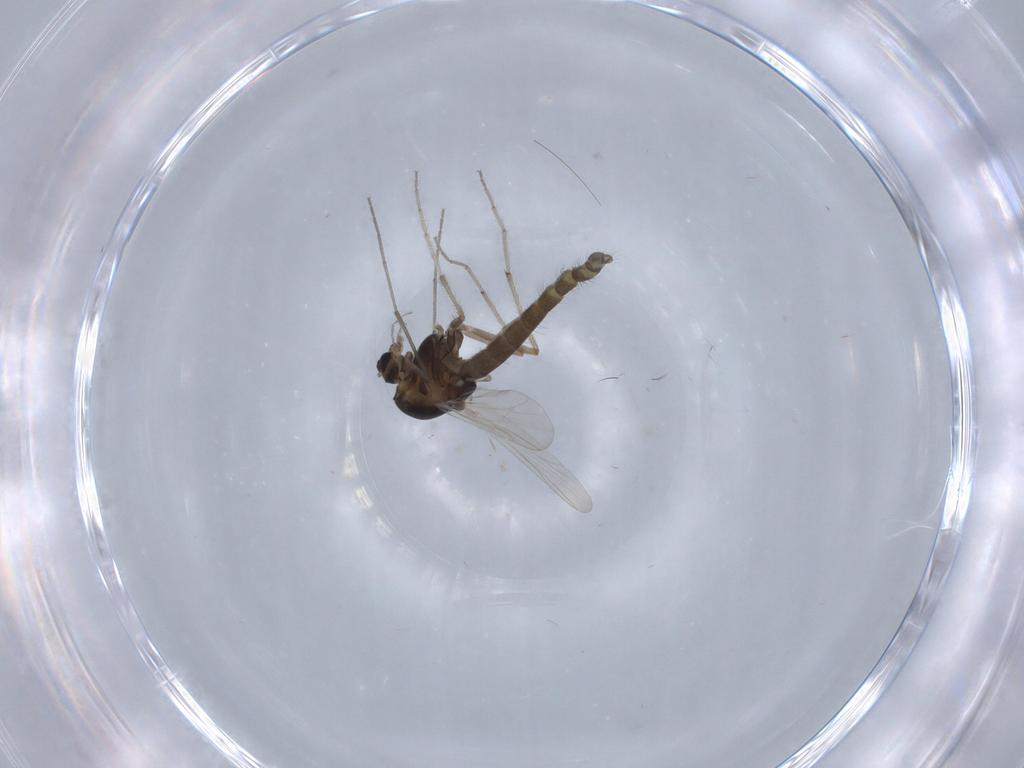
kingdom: Animalia
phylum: Arthropoda
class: Insecta
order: Diptera
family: Chironomidae
